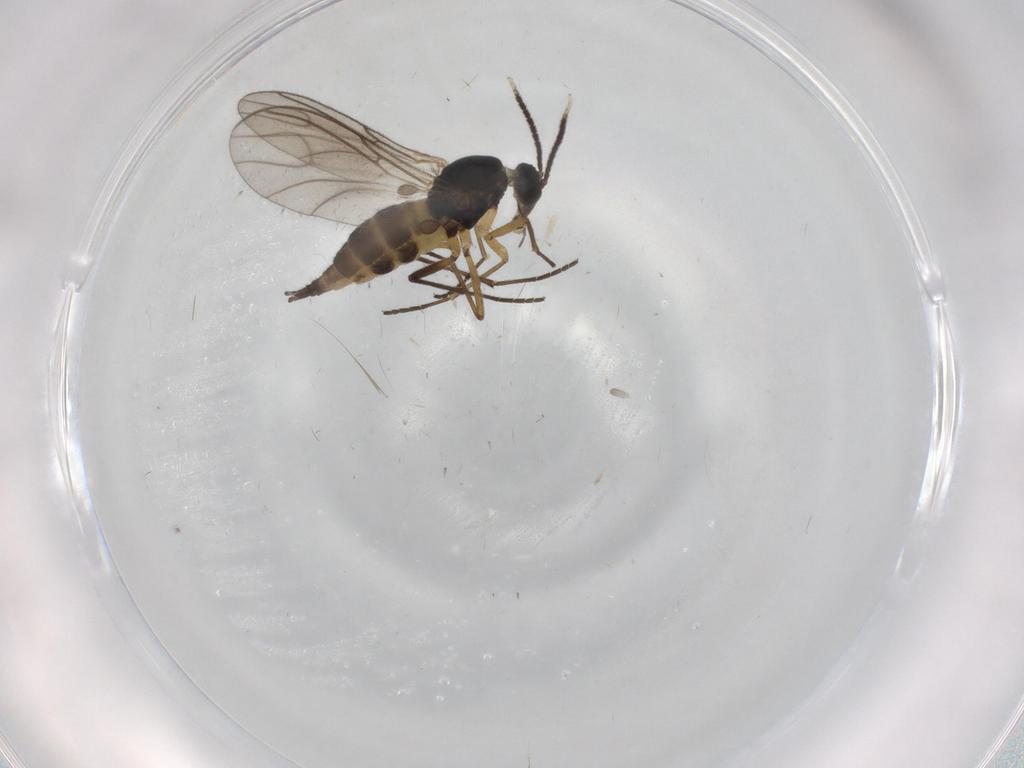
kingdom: Animalia
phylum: Arthropoda
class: Insecta
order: Diptera
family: Sciaridae
